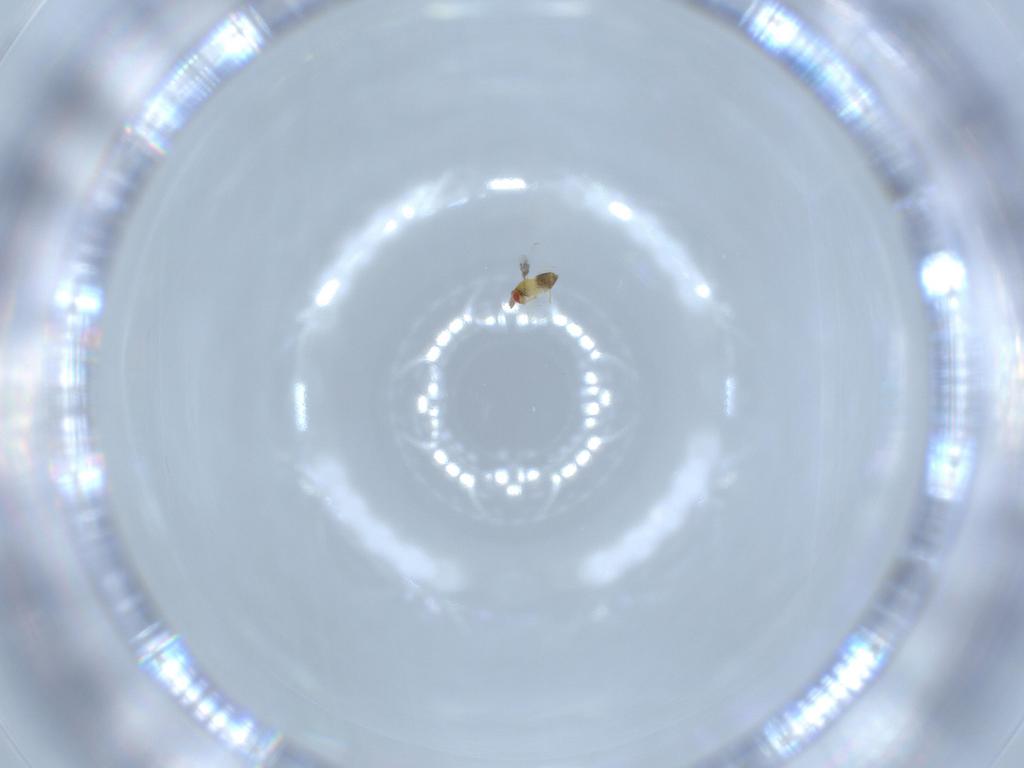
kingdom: Animalia
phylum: Arthropoda
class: Insecta
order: Hymenoptera
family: Trichogrammatidae
